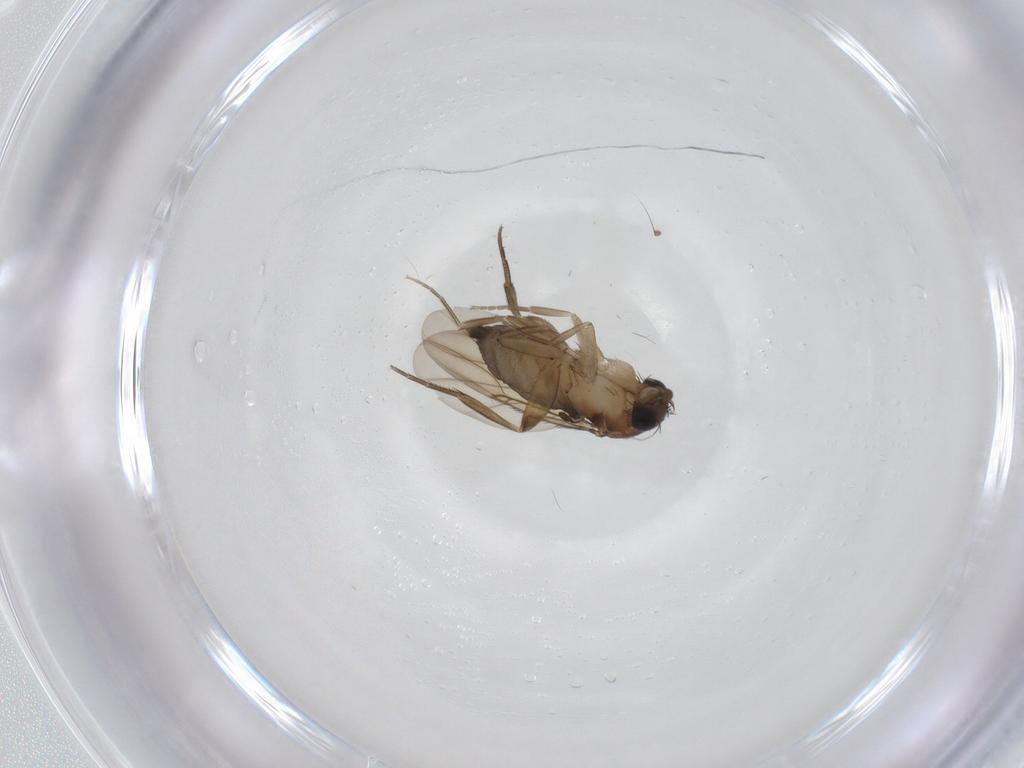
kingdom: Animalia
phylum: Arthropoda
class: Insecta
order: Diptera
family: Phoridae
